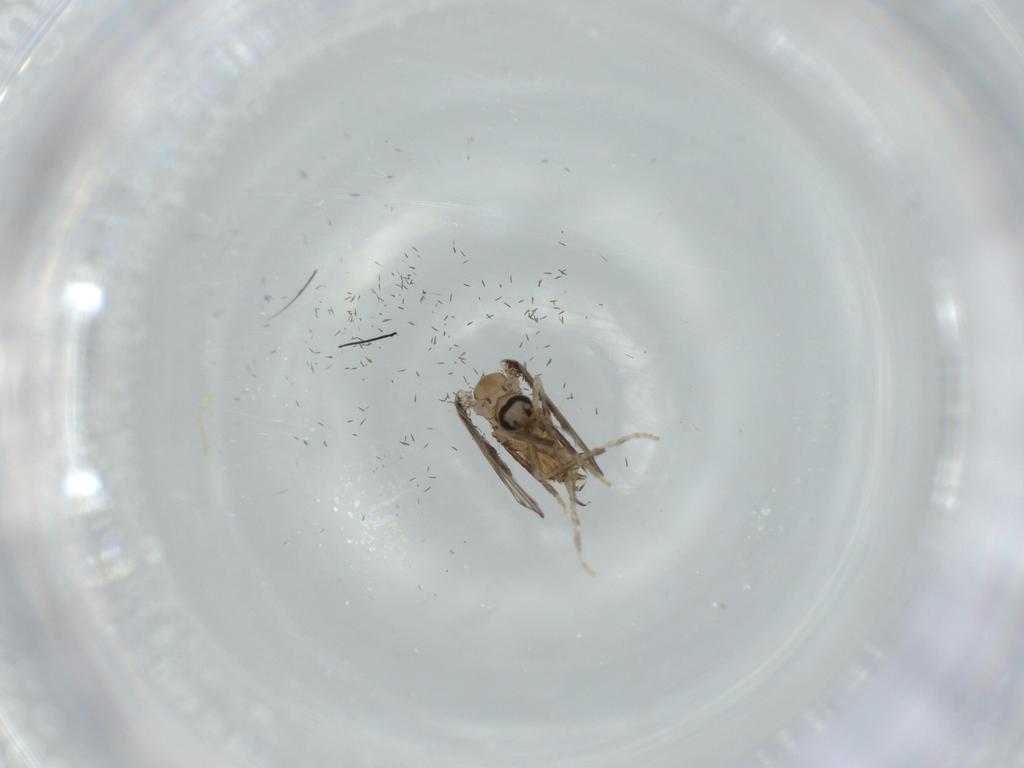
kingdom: Animalia
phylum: Arthropoda
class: Insecta
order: Diptera
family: Psychodidae
